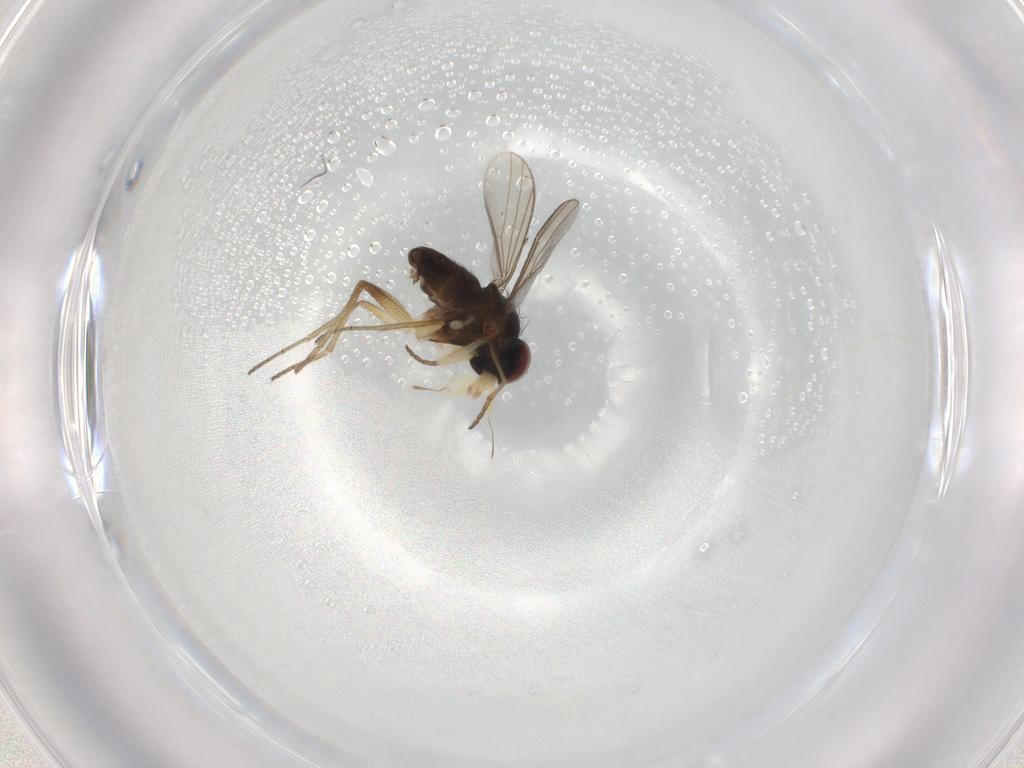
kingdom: Animalia
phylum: Arthropoda
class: Insecta
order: Diptera
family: Dolichopodidae
